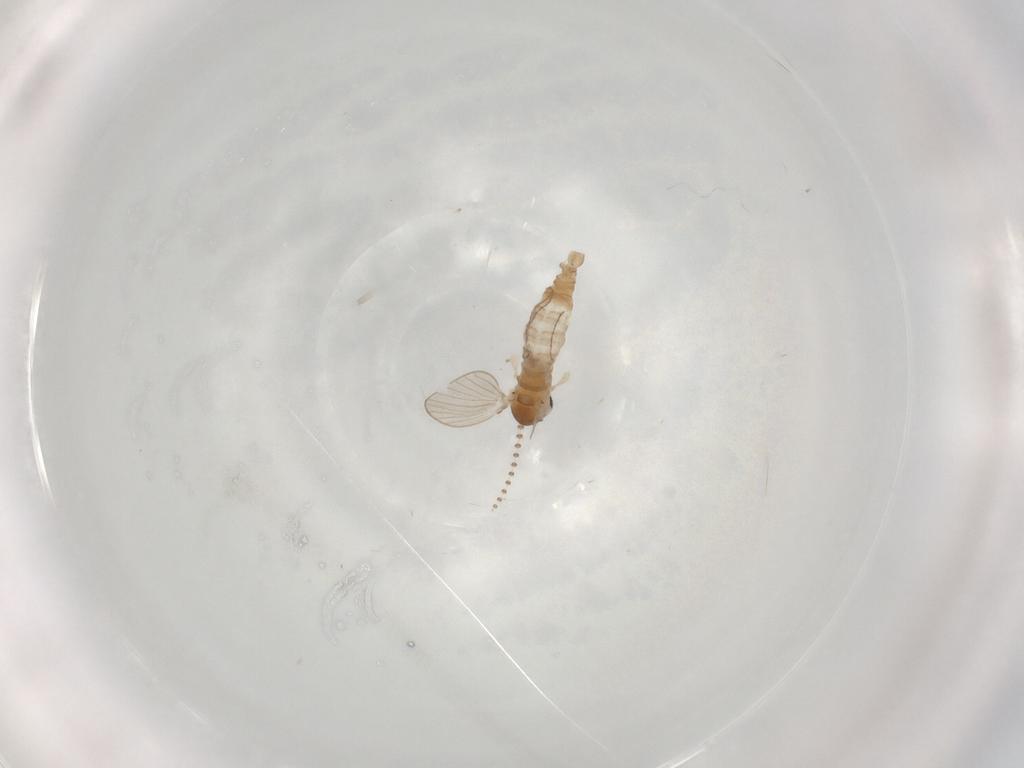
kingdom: Animalia
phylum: Arthropoda
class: Insecta
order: Diptera
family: Psychodidae
